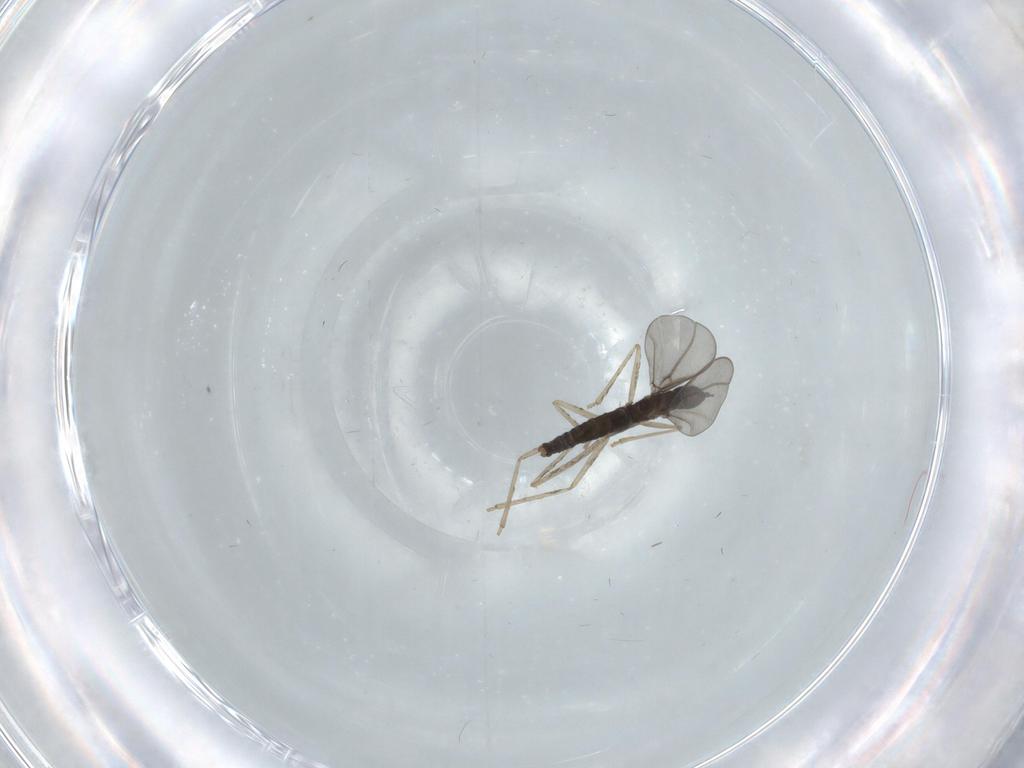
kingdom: Animalia
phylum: Arthropoda
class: Insecta
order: Diptera
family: Cecidomyiidae
